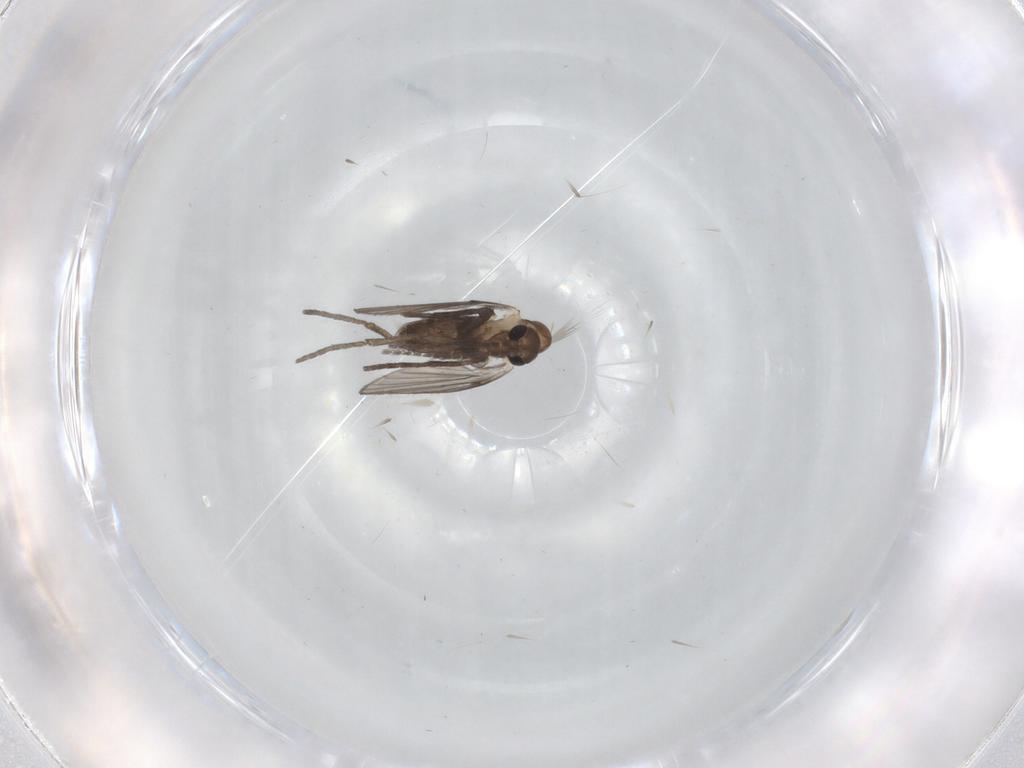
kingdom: Animalia
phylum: Arthropoda
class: Insecta
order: Diptera
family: Psychodidae
